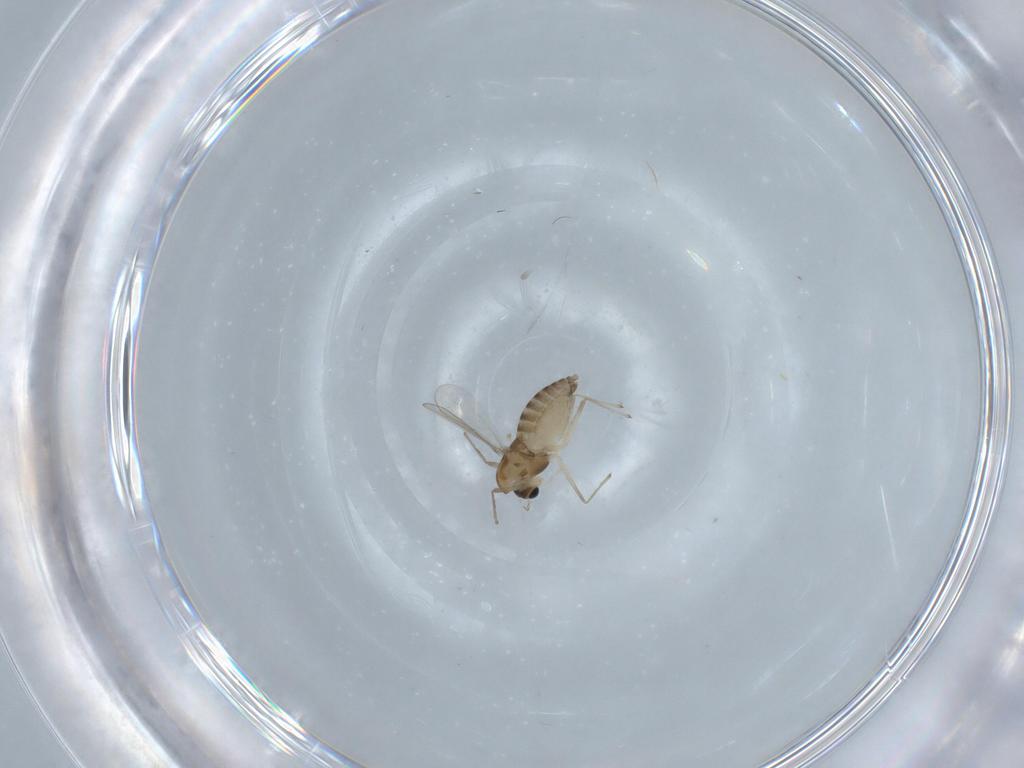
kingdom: Animalia
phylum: Arthropoda
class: Insecta
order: Diptera
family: Chironomidae
